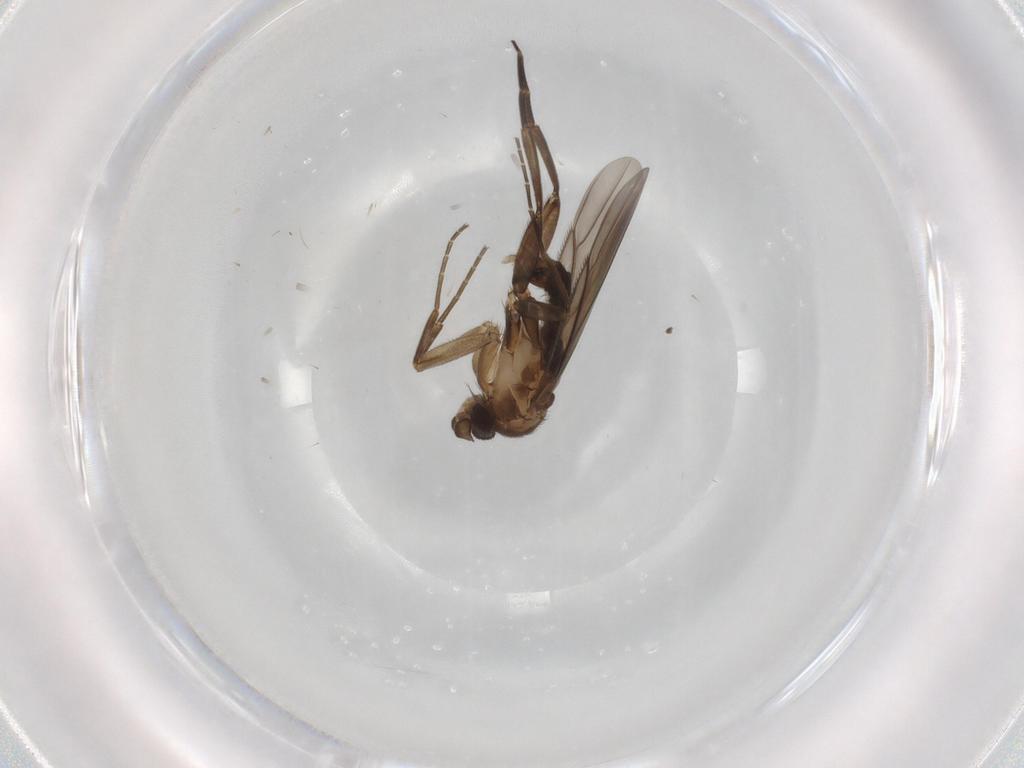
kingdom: Animalia
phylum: Arthropoda
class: Insecta
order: Diptera
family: Phoridae
